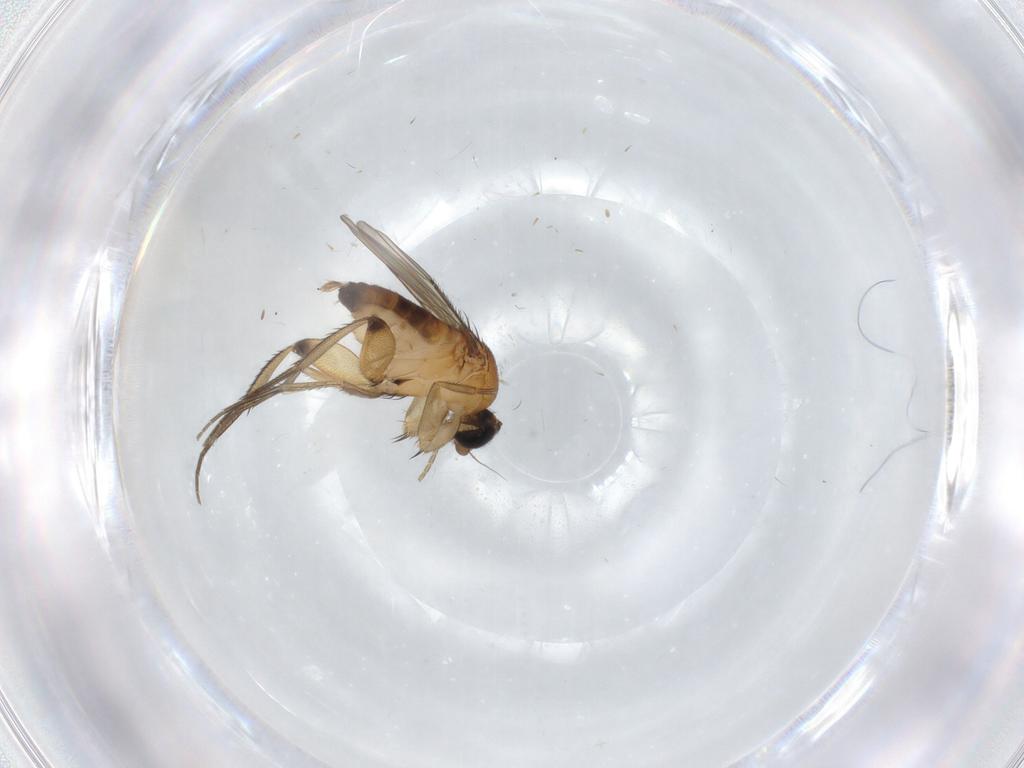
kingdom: Animalia
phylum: Arthropoda
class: Insecta
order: Diptera
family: Phoridae
